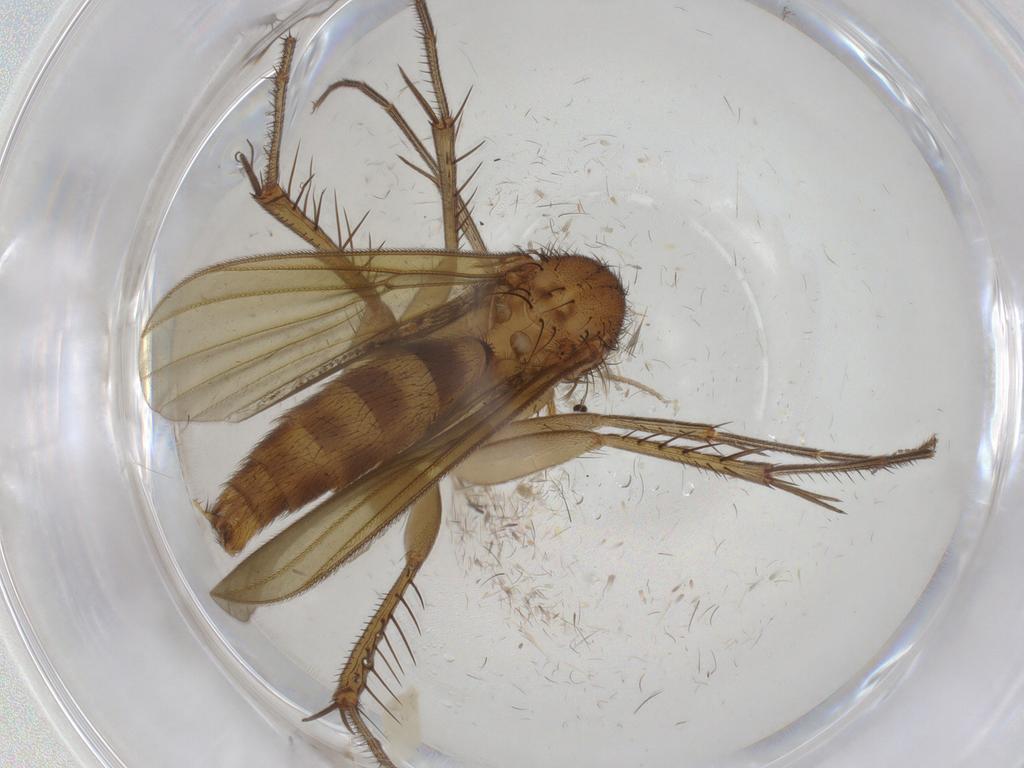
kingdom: Animalia
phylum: Arthropoda
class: Insecta
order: Diptera
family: Mycetophilidae
